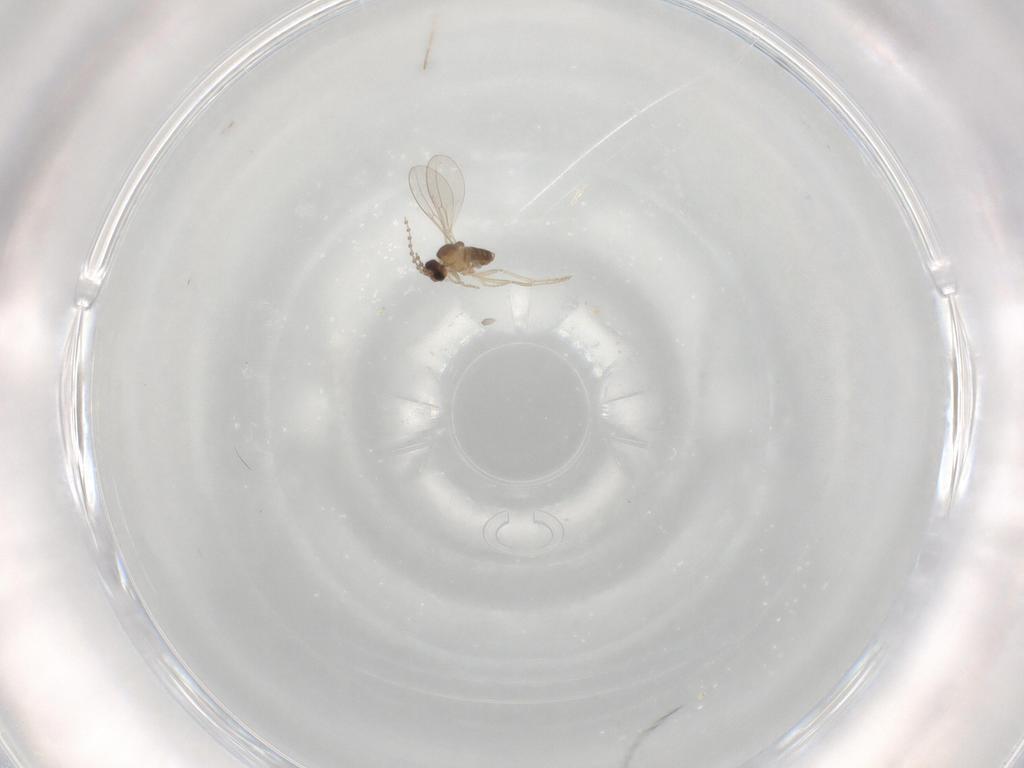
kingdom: Animalia
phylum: Arthropoda
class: Insecta
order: Diptera
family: Cecidomyiidae
